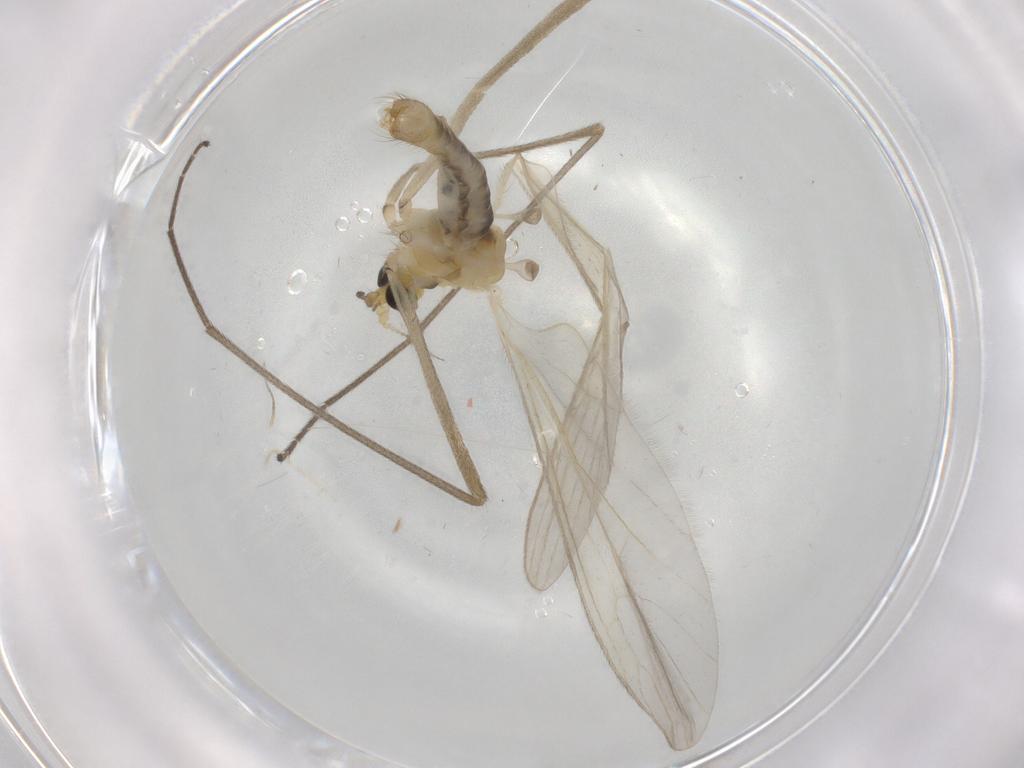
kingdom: Animalia
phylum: Arthropoda
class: Insecta
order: Diptera
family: Limoniidae
